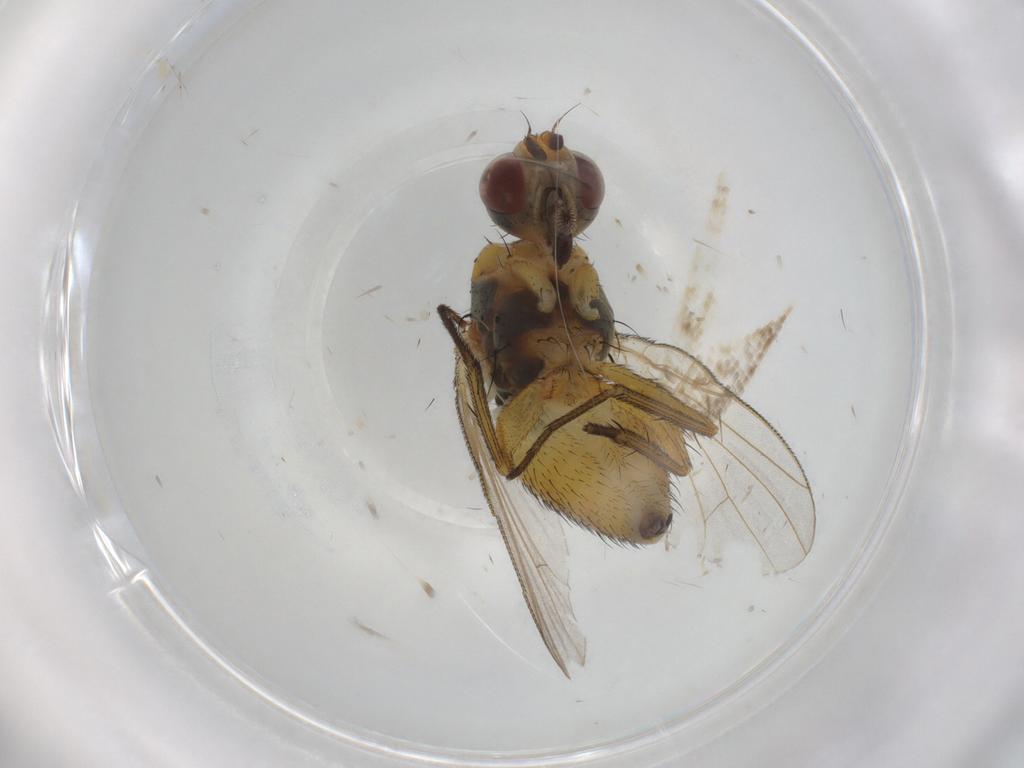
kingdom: Animalia
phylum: Arthropoda
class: Insecta
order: Diptera
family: Muscidae
